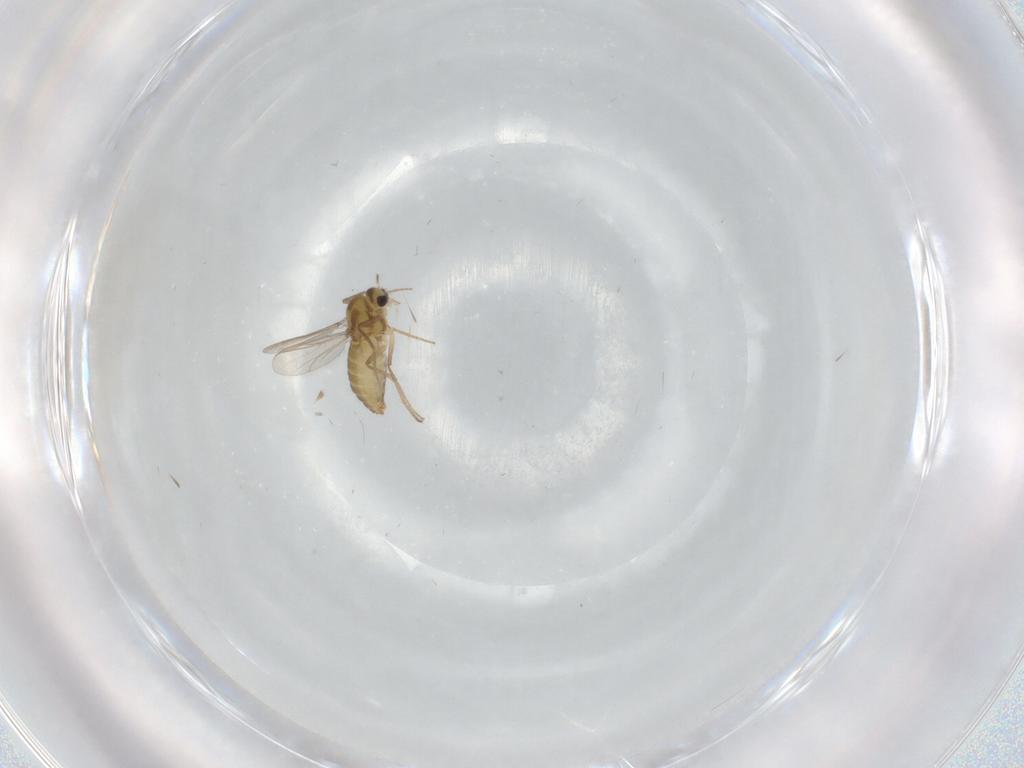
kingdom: Animalia
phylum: Arthropoda
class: Insecta
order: Diptera
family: Chironomidae
